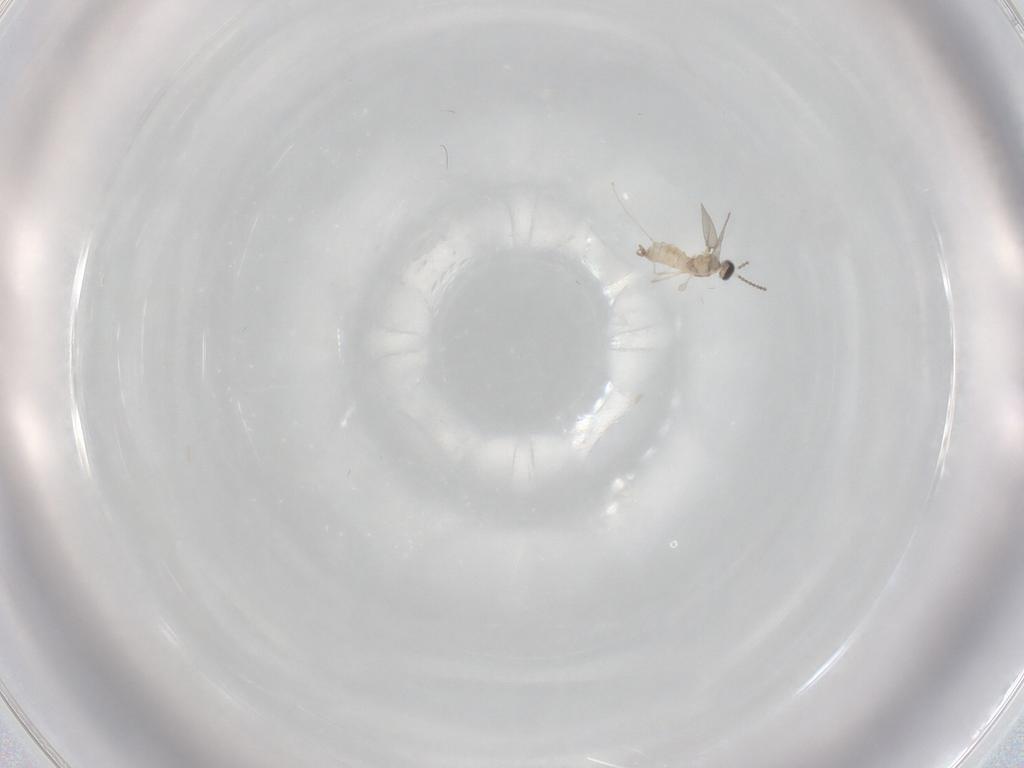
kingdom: Animalia
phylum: Arthropoda
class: Insecta
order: Diptera
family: Cecidomyiidae
